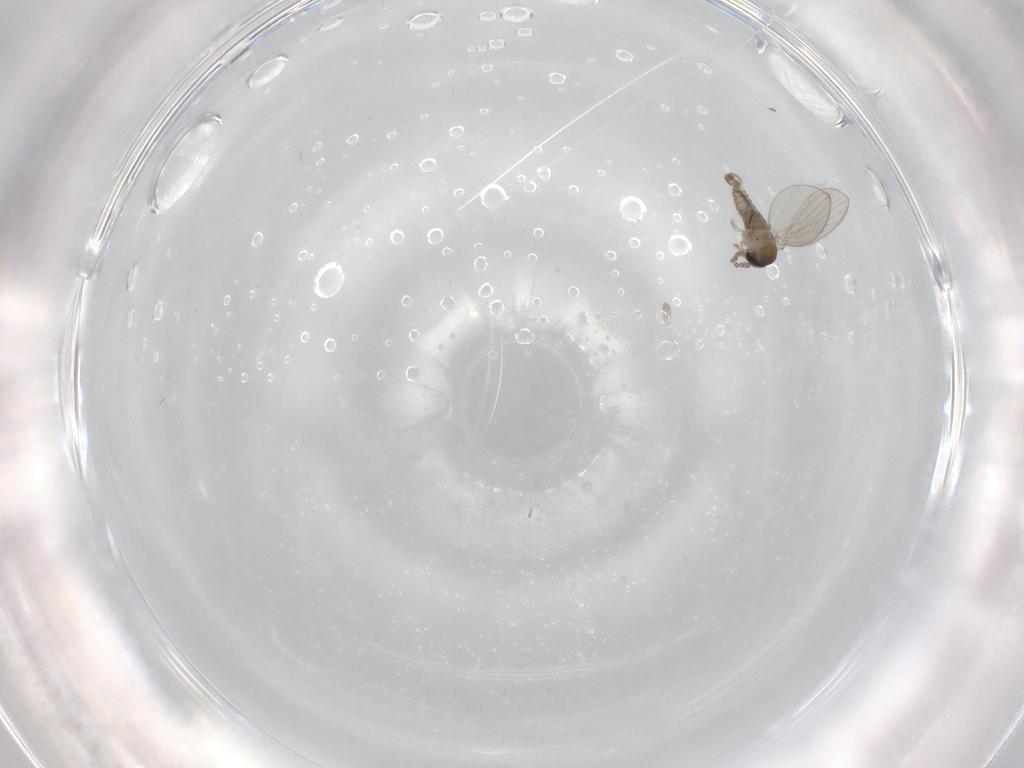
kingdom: Animalia
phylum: Arthropoda
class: Insecta
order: Diptera
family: Psychodidae
